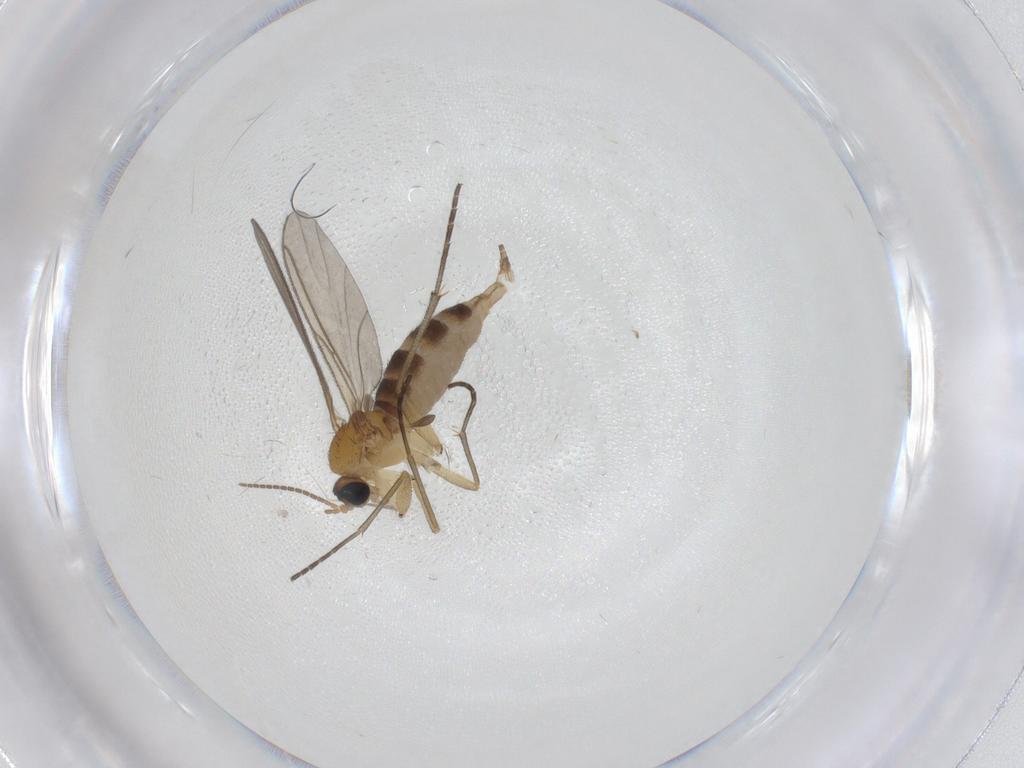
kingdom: Animalia
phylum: Arthropoda
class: Insecta
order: Diptera
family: Sciaridae
